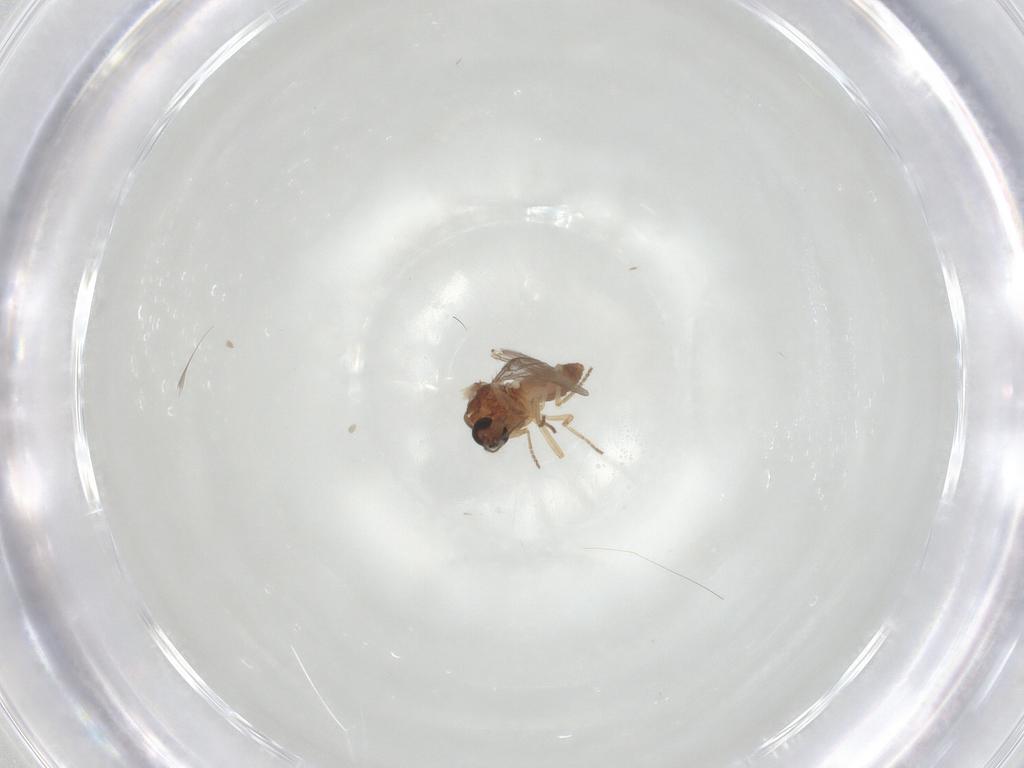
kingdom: Animalia
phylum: Arthropoda
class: Insecta
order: Diptera
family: Ceratopogonidae
